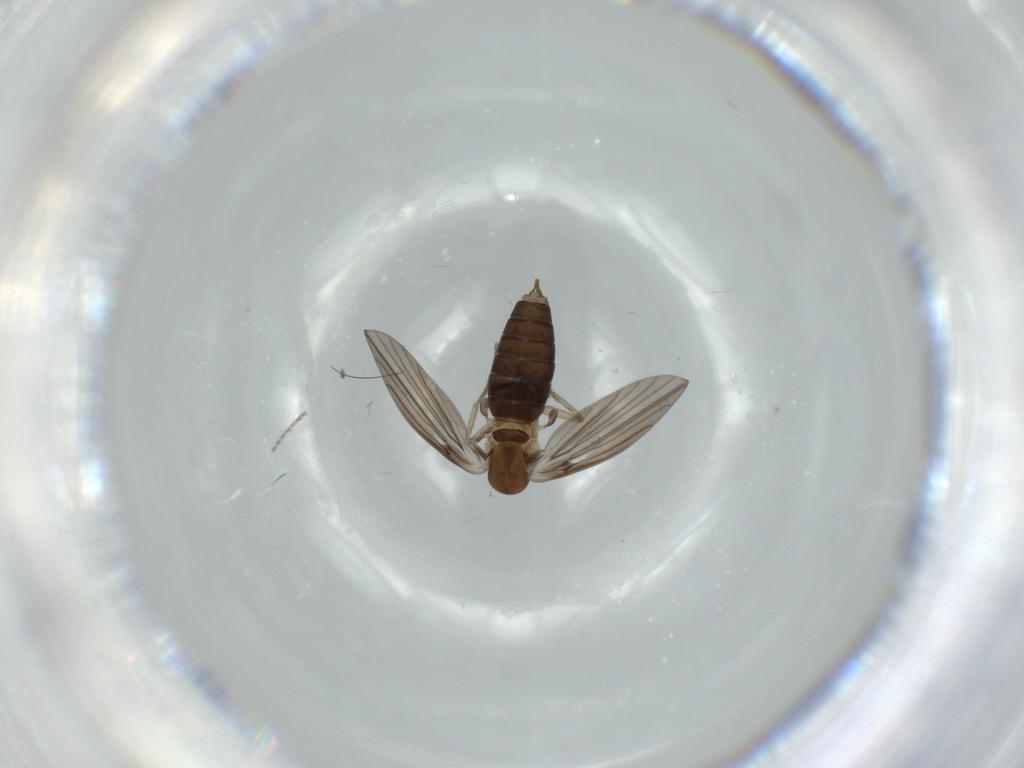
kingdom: Animalia
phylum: Arthropoda
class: Insecta
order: Diptera
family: Psychodidae
